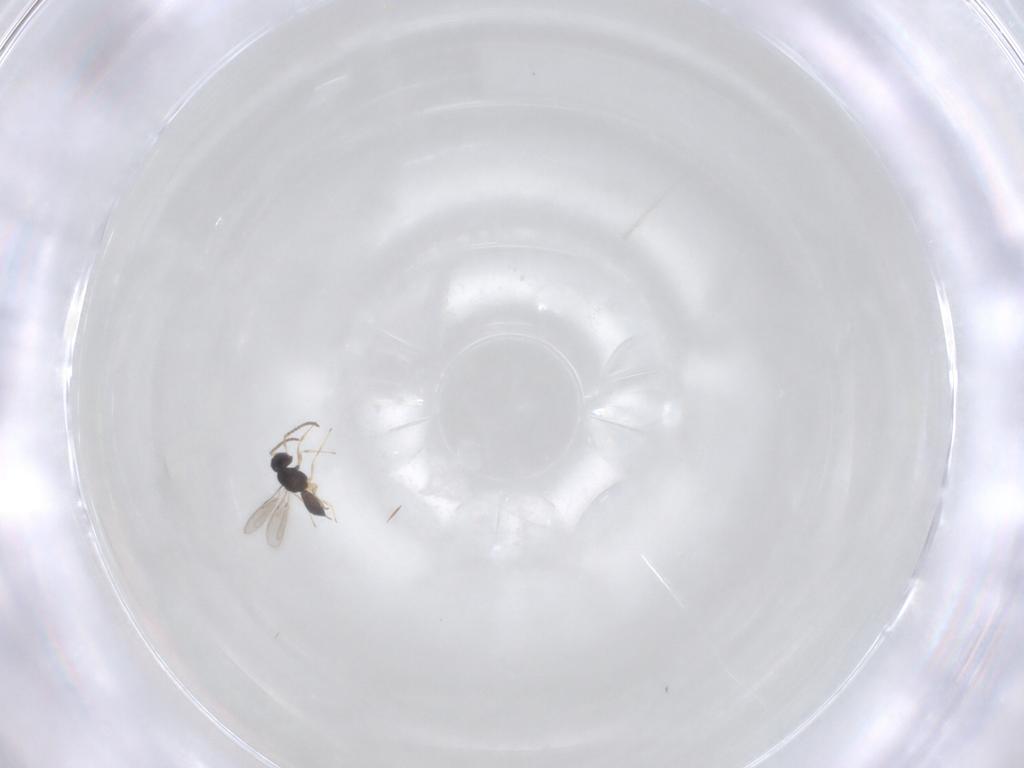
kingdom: Animalia
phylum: Arthropoda
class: Insecta
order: Hymenoptera
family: Scelionidae
